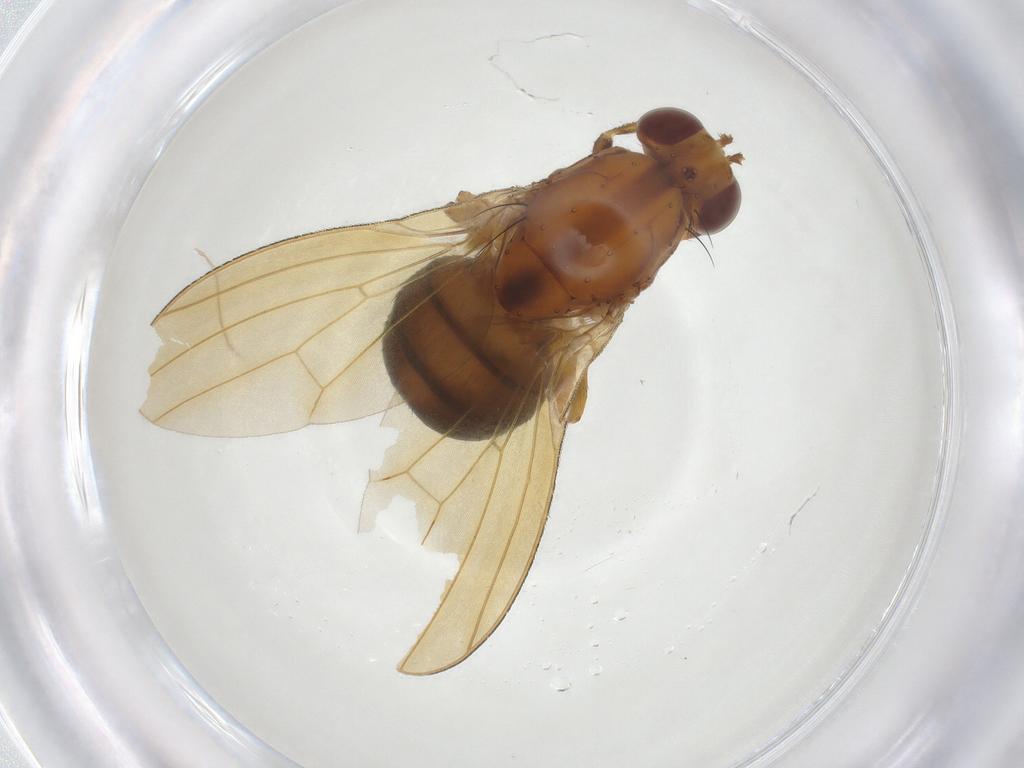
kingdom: Animalia
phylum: Arthropoda
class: Insecta
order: Diptera
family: Lauxaniidae
